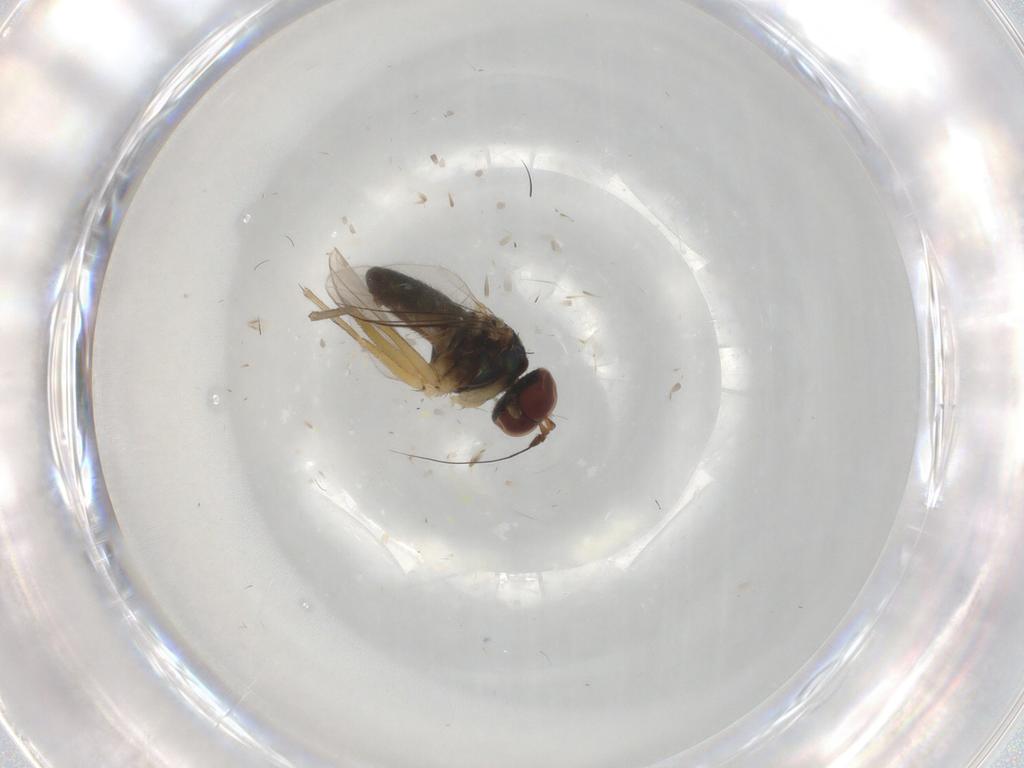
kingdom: Animalia
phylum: Arthropoda
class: Insecta
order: Diptera
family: Dolichopodidae
